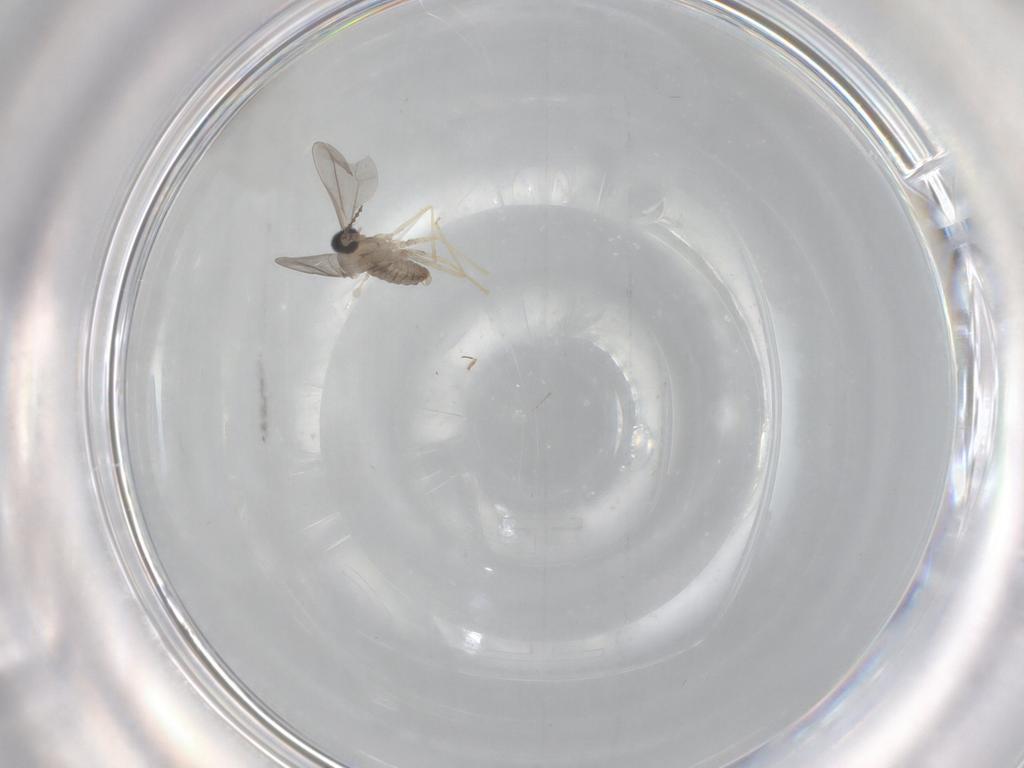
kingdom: Animalia
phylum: Arthropoda
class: Insecta
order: Diptera
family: Cecidomyiidae
